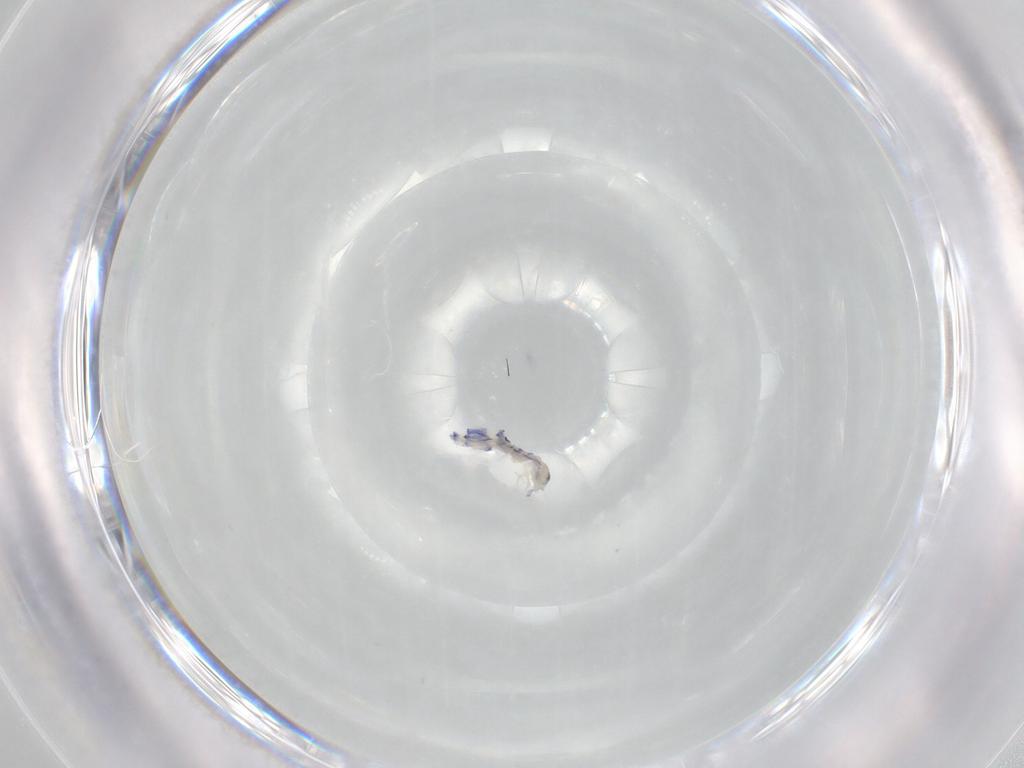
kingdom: Animalia
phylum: Arthropoda
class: Collembola
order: Entomobryomorpha
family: Entomobryidae
